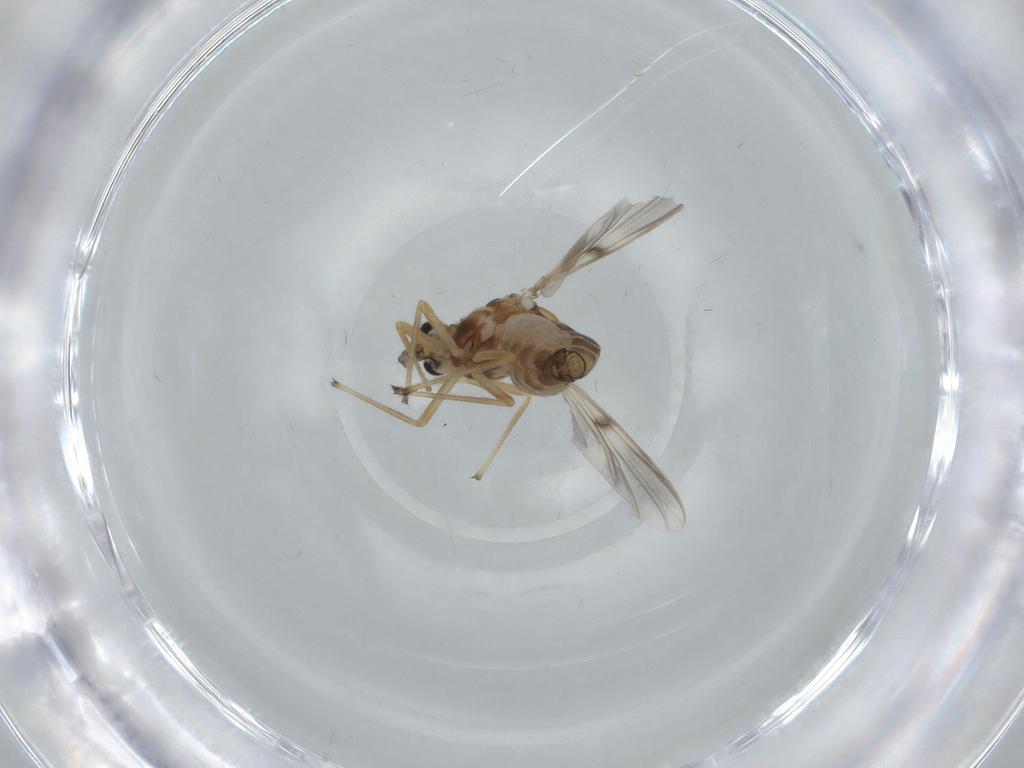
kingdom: Animalia
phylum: Arthropoda
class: Insecta
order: Diptera
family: Chironomidae
